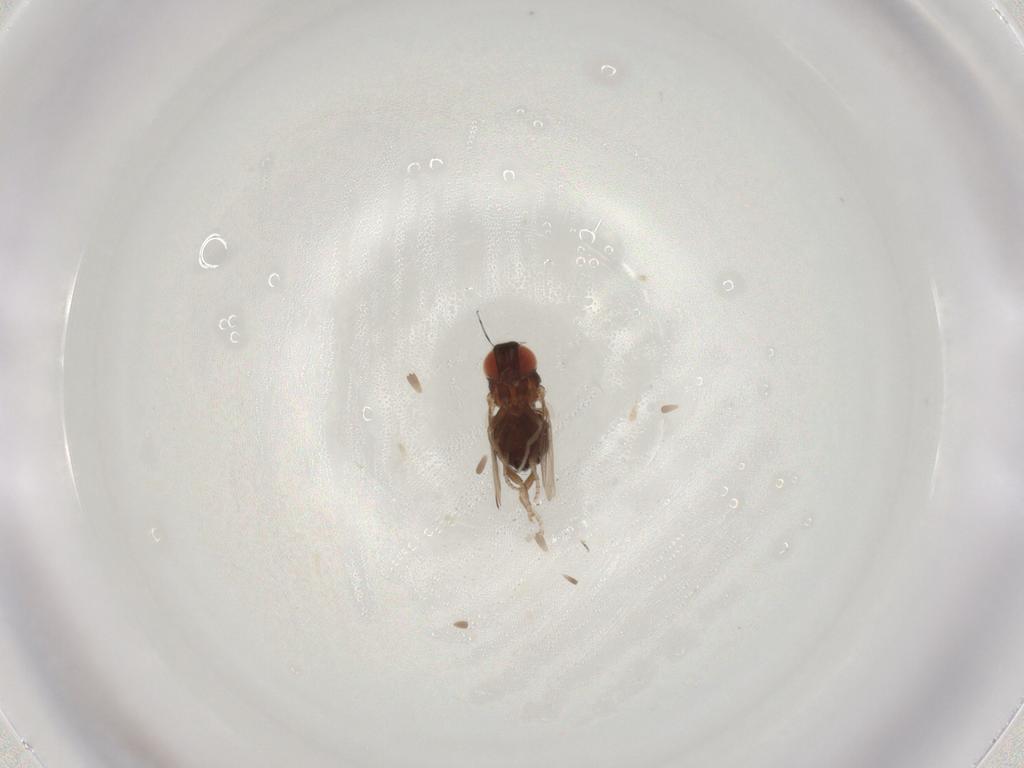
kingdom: Animalia
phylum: Arthropoda
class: Insecta
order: Diptera
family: Chironomidae
